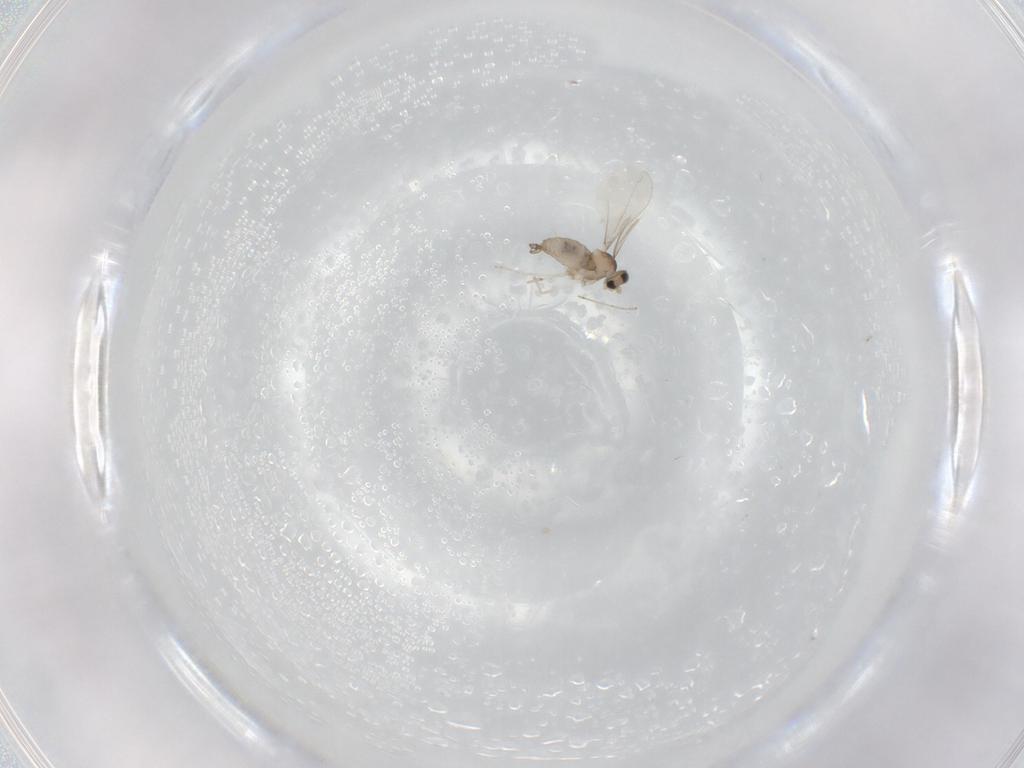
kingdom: Animalia
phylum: Arthropoda
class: Insecta
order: Diptera
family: Cecidomyiidae
